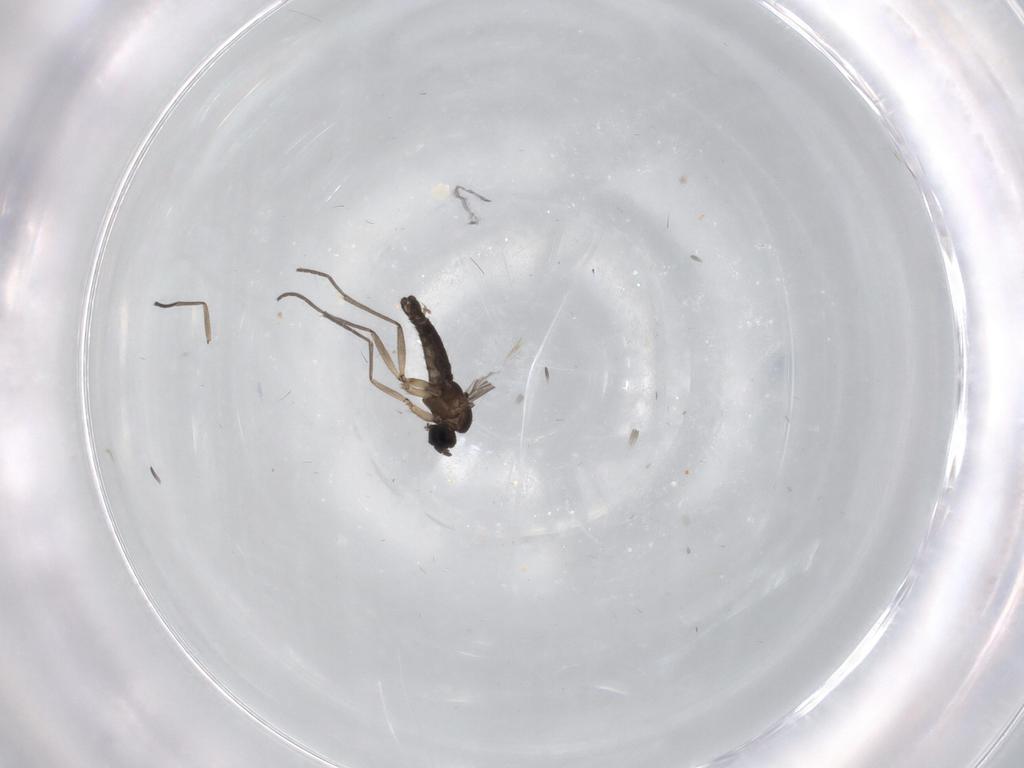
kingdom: Animalia
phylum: Arthropoda
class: Insecta
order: Diptera
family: Sciaridae
